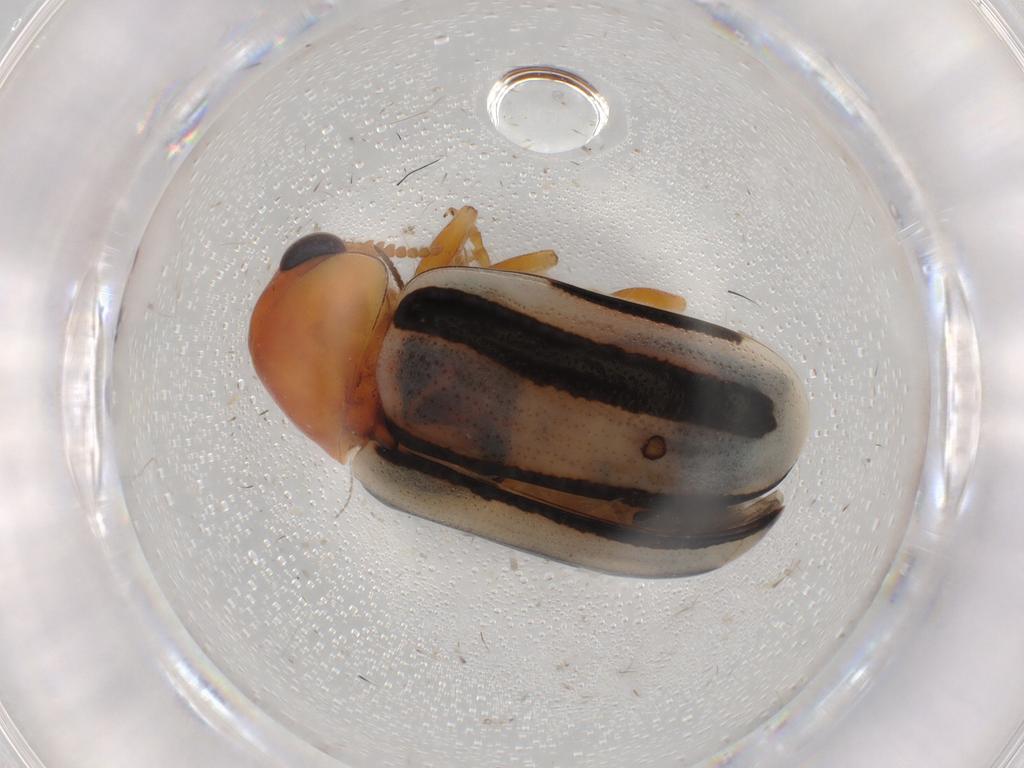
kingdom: Animalia
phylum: Arthropoda
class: Insecta
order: Coleoptera
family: Chrysomelidae
